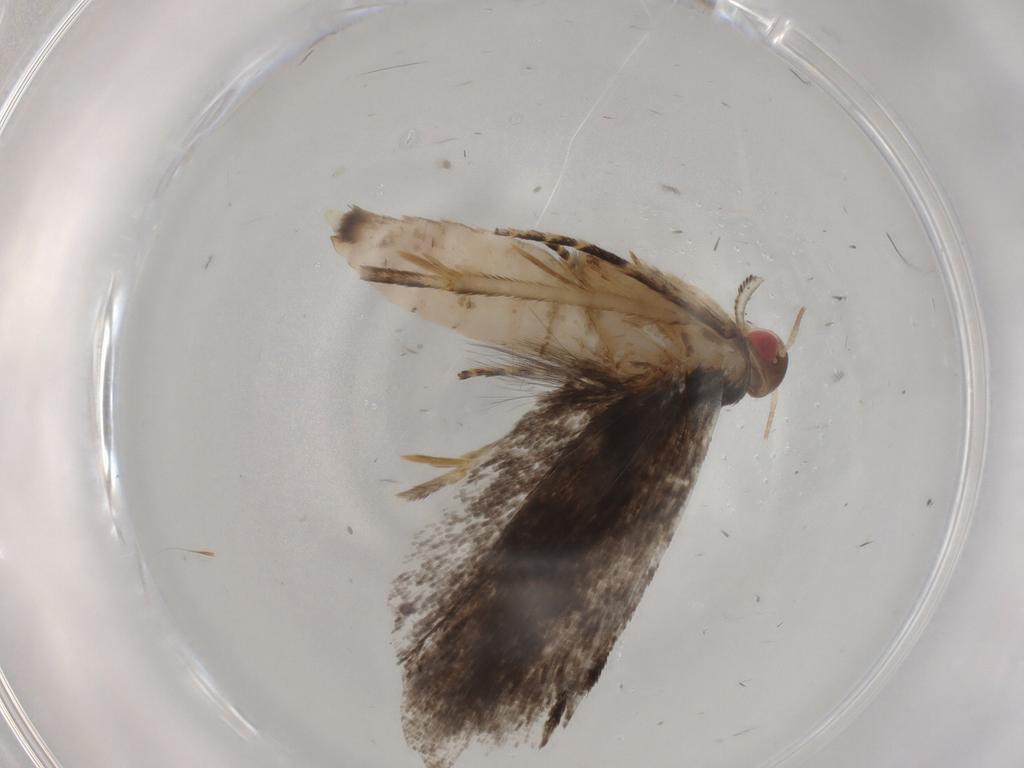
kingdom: Animalia
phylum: Arthropoda
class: Insecta
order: Lepidoptera
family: Gelechiidae
